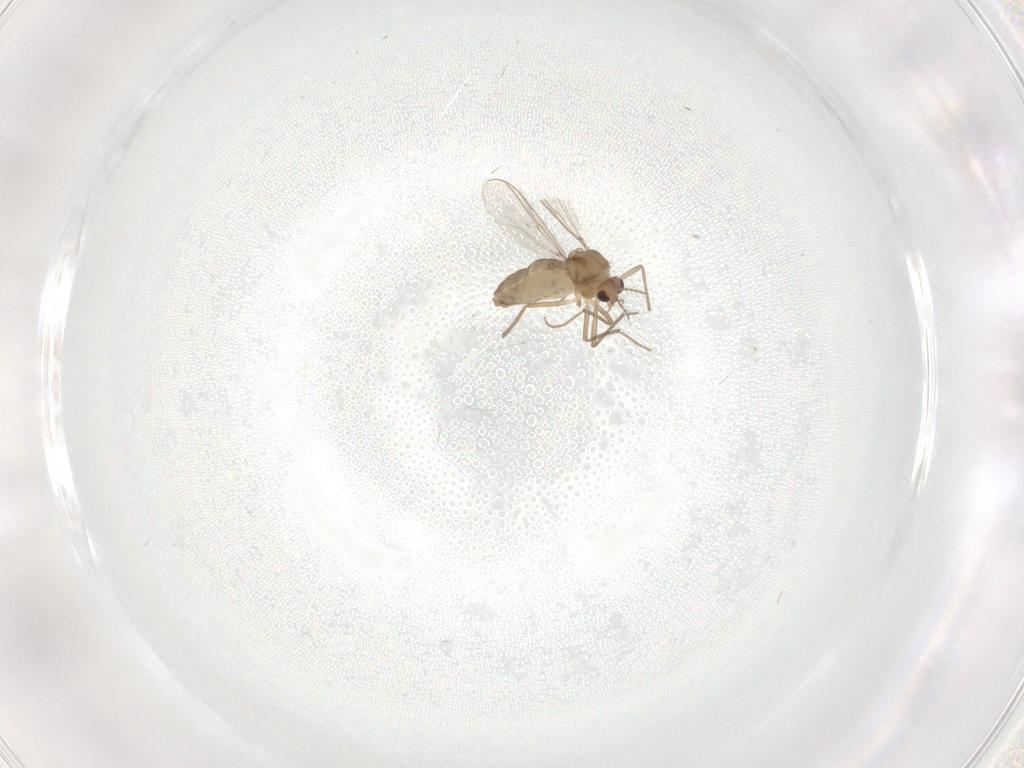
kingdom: Animalia
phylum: Arthropoda
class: Insecta
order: Diptera
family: Chironomidae
